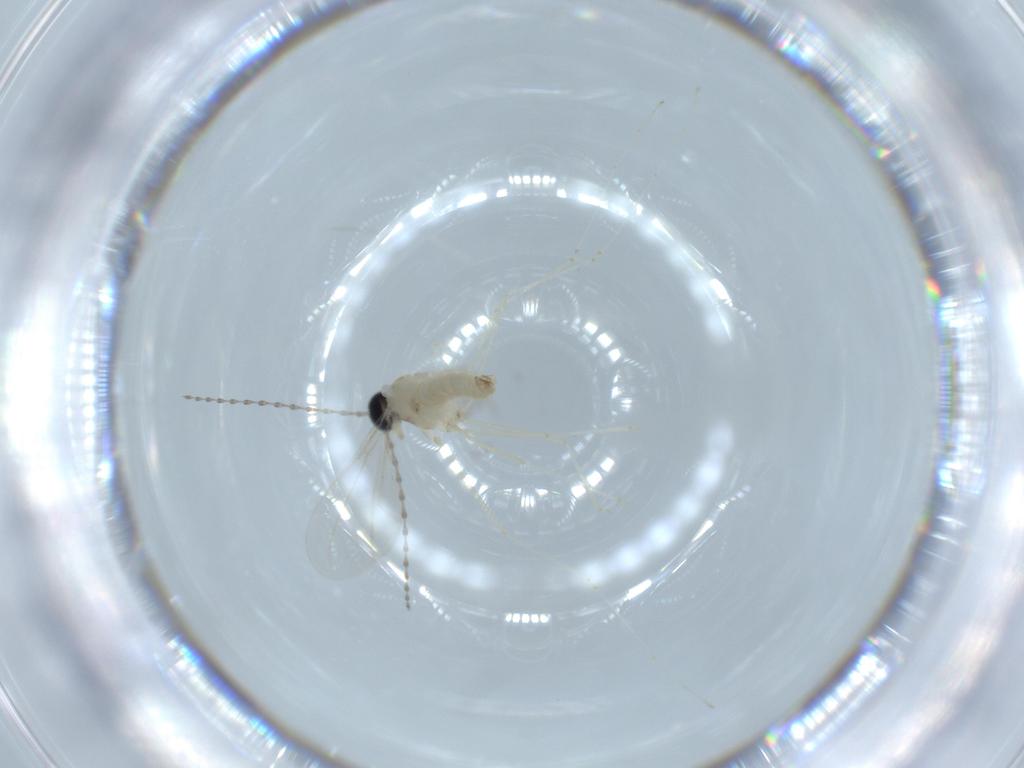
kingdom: Animalia
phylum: Arthropoda
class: Insecta
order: Diptera
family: Cecidomyiidae
